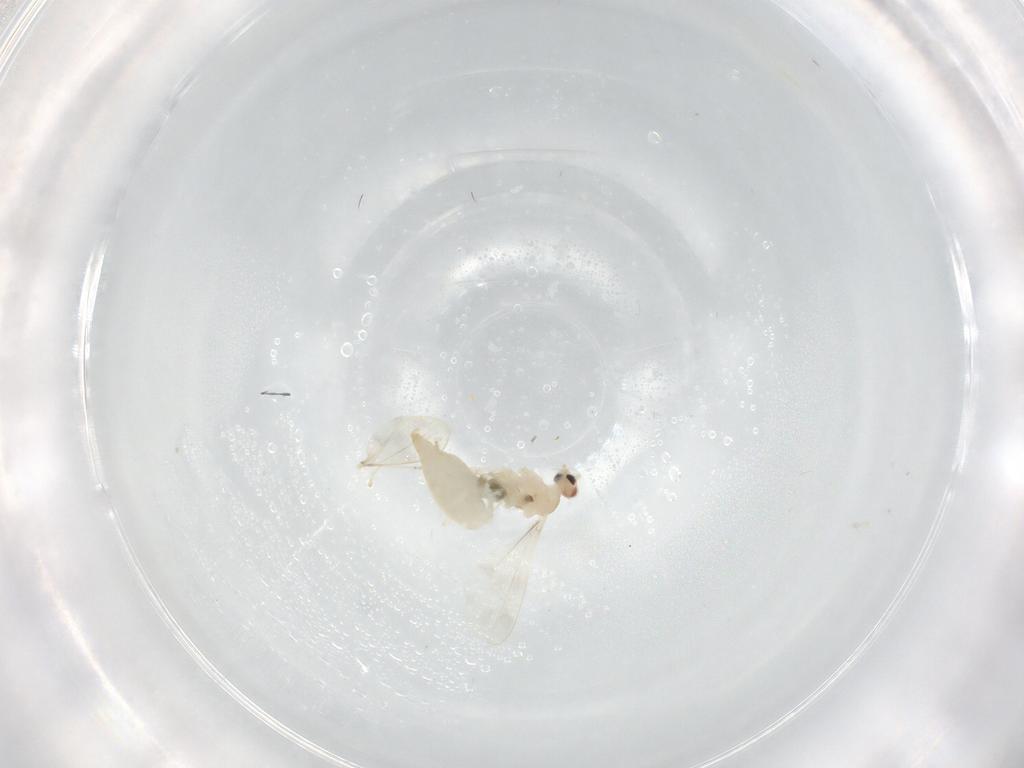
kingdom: Animalia
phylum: Arthropoda
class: Insecta
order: Diptera
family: Cecidomyiidae
